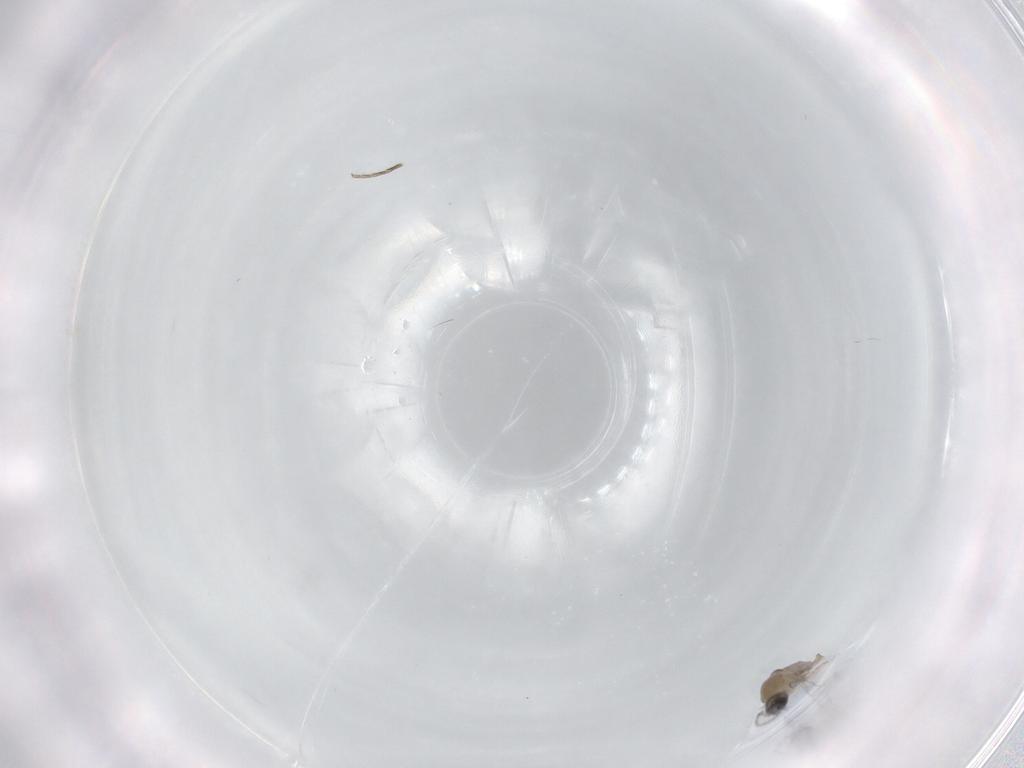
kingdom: Animalia
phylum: Arthropoda
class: Insecta
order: Diptera
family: Cecidomyiidae
